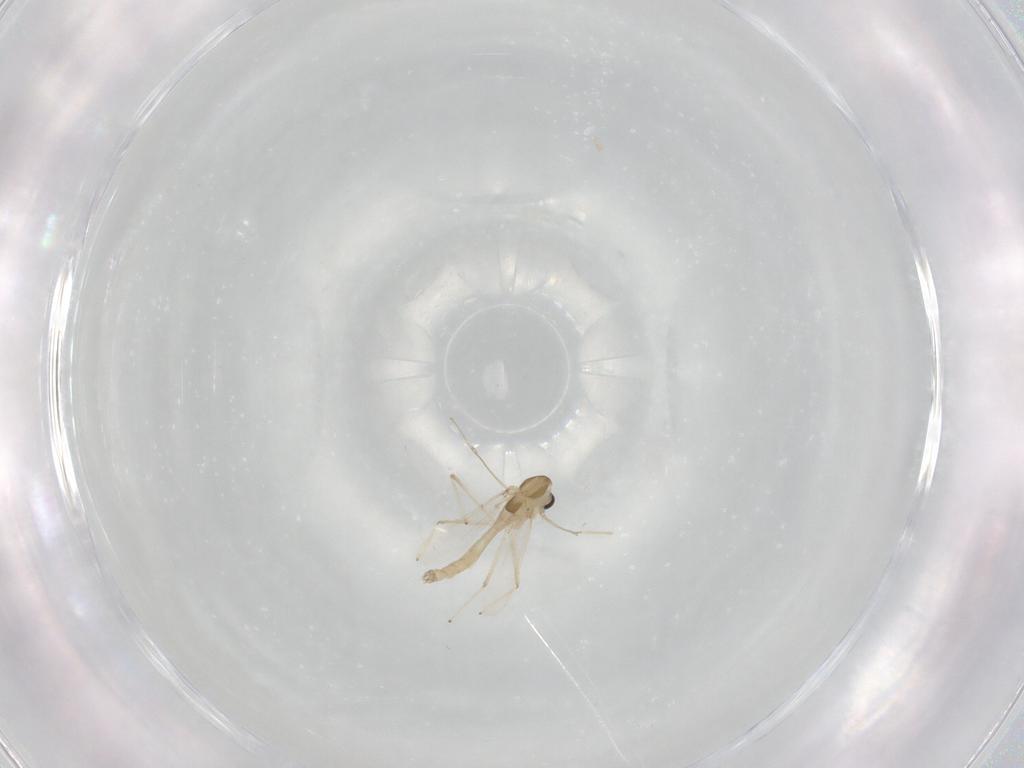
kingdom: Animalia
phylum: Arthropoda
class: Insecta
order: Diptera
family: Chironomidae
